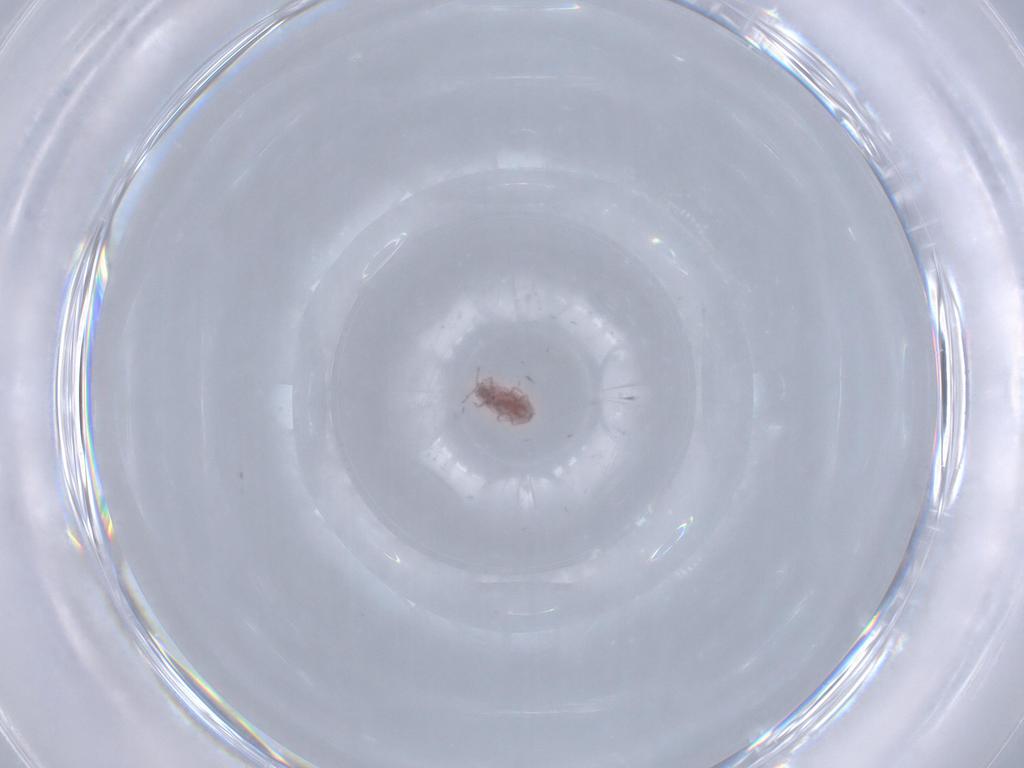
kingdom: Animalia
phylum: Arthropoda
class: Insecta
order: Hemiptera
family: Pseudococcidae
